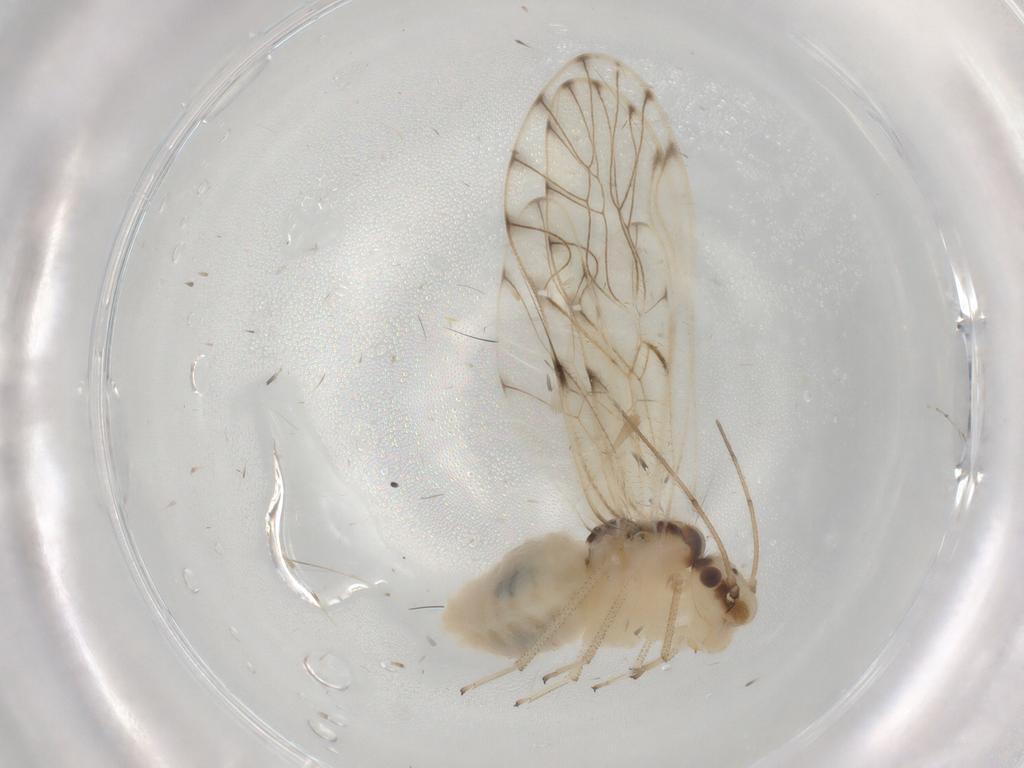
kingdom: Animalia
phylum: Arthropoda
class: Insecta
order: Psocodea
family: Philotarsidae
